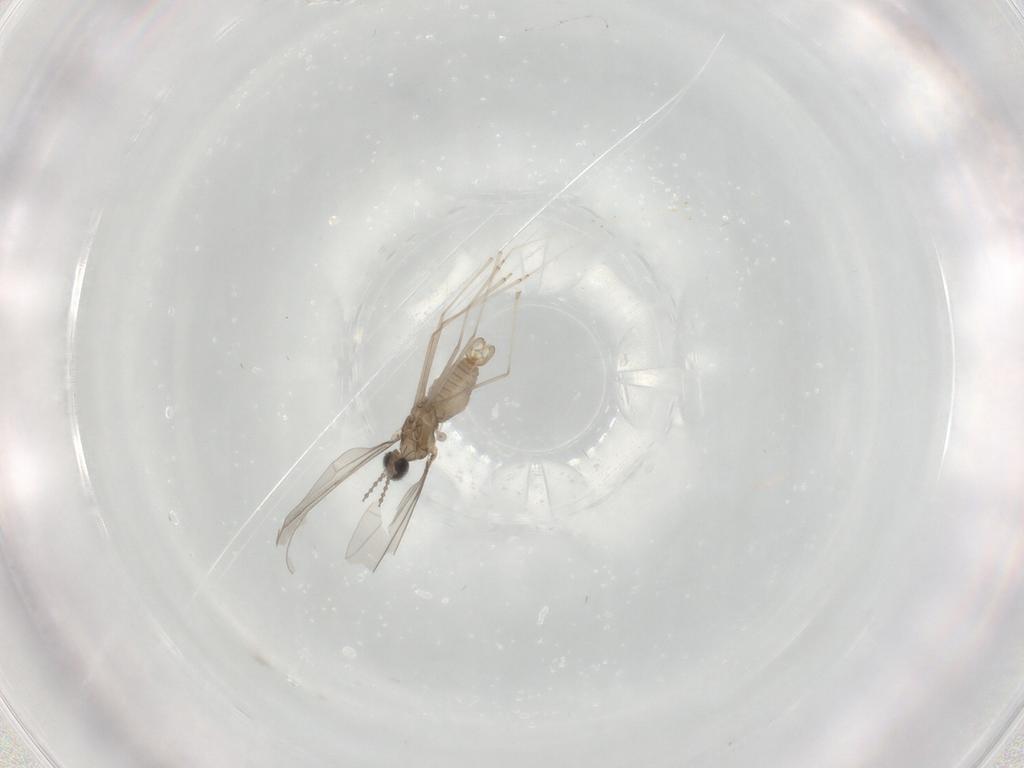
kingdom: Animalia
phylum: Arthropoda
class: Insecta
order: Diptera
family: Cecidomyiidae
